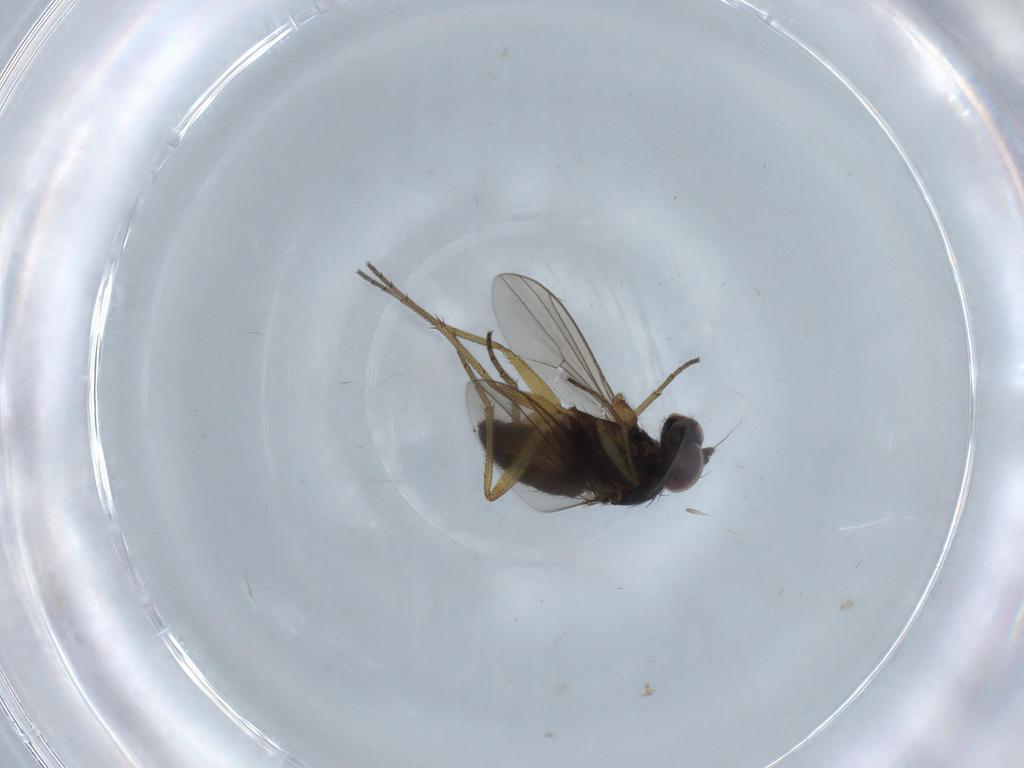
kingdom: Animalia
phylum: Arthropoda
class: Insecta
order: Diptera
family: Dolichopodidae
